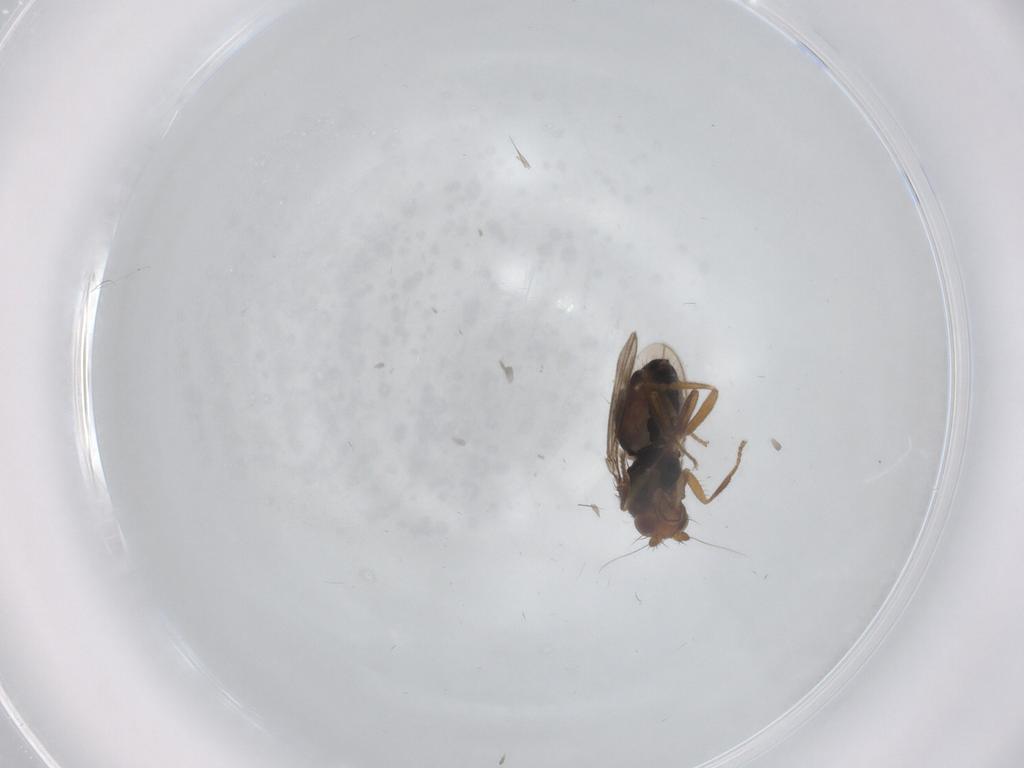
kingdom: Animalia
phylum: Arthropoda
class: Insecta
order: Diptera
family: Sphaeroceridae
